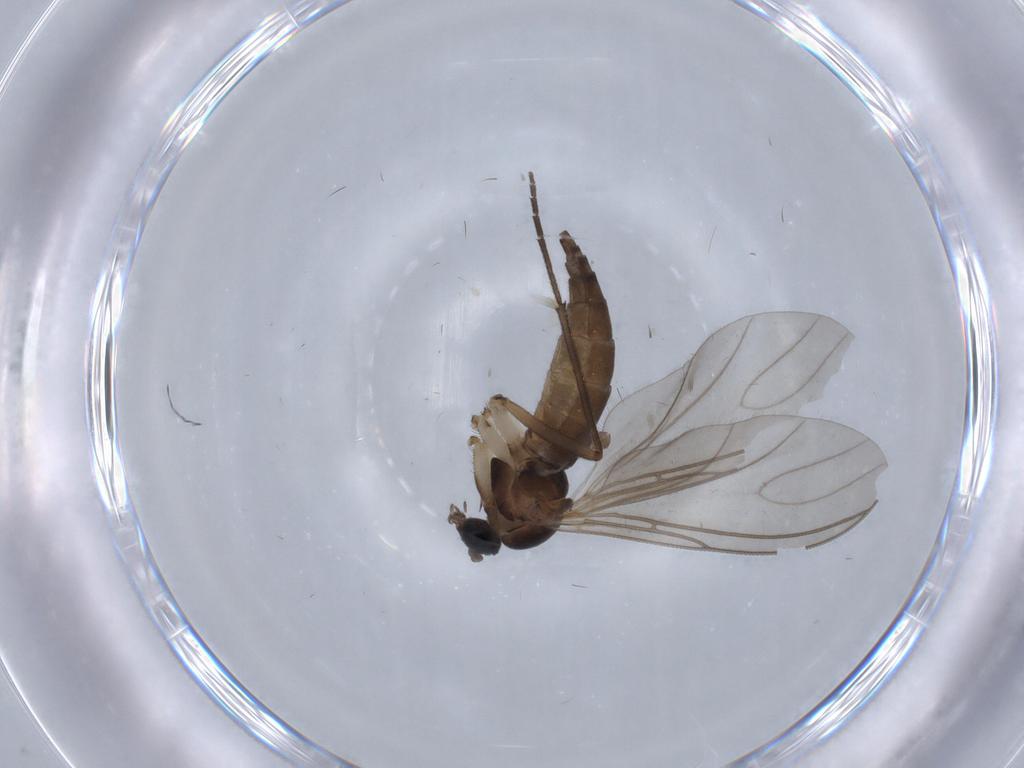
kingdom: Animalia
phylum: Arthropoda
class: Insecta
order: Diptera
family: Sciaridae
